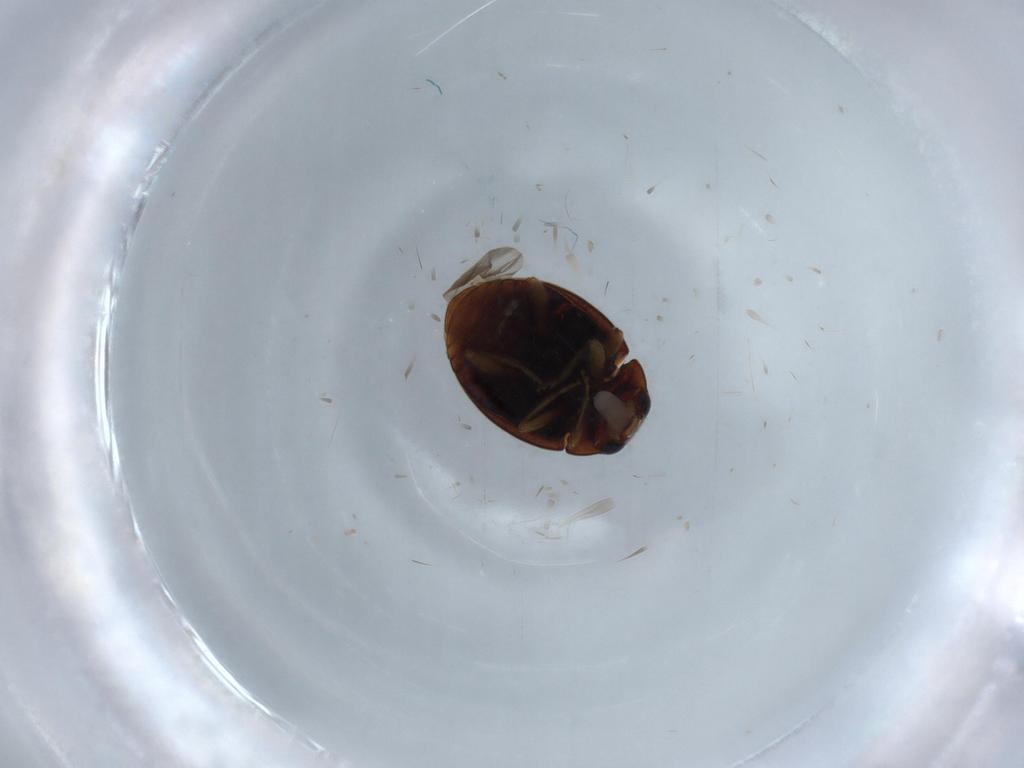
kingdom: Animalia
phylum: Arthropoda
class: Insecta
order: Coleoptera
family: Coccinellidae
